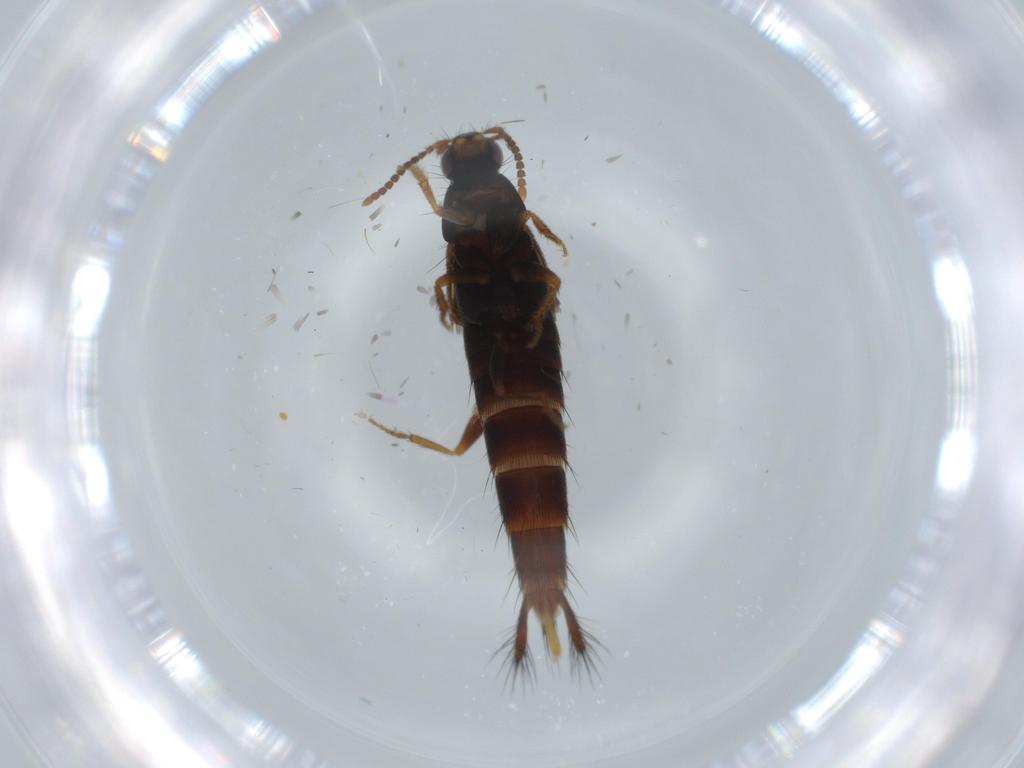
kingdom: Animalia
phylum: Arthropoda
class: Insecta
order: Coleoptera
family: Staphylinidae
